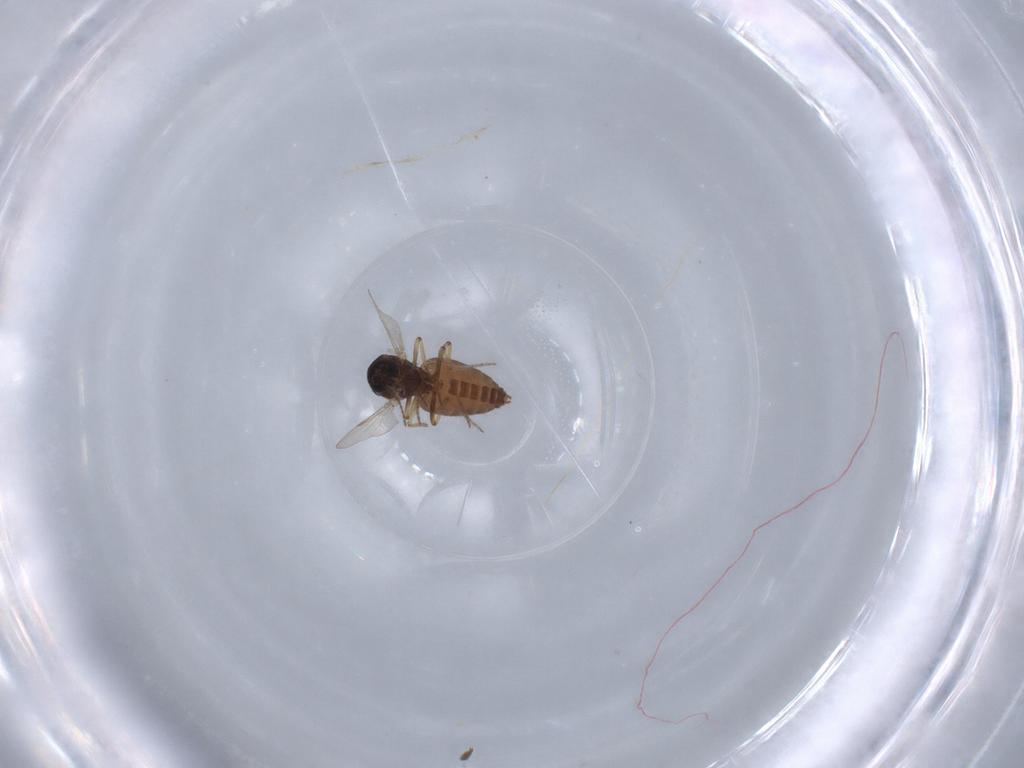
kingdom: Animalia
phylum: Arthropoda
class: Insecta
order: Diptera
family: Ceratopogonidae
